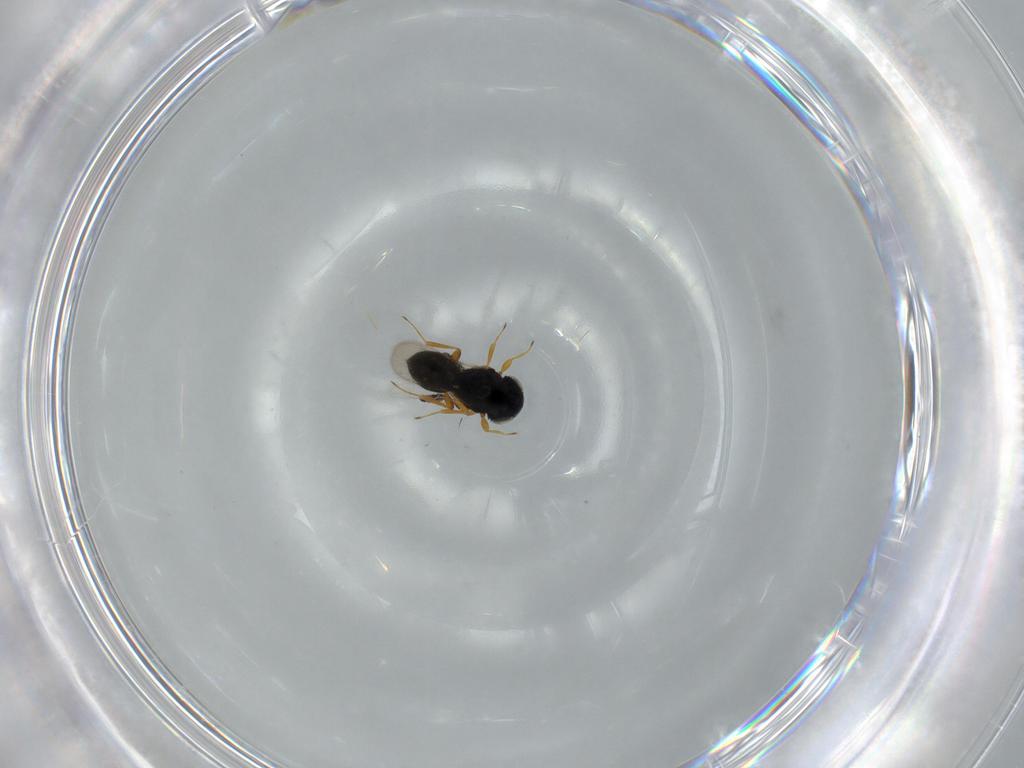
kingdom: Animalia
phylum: Arthropoda
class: Insecta
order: Hymenoptera
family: Scelionidae
